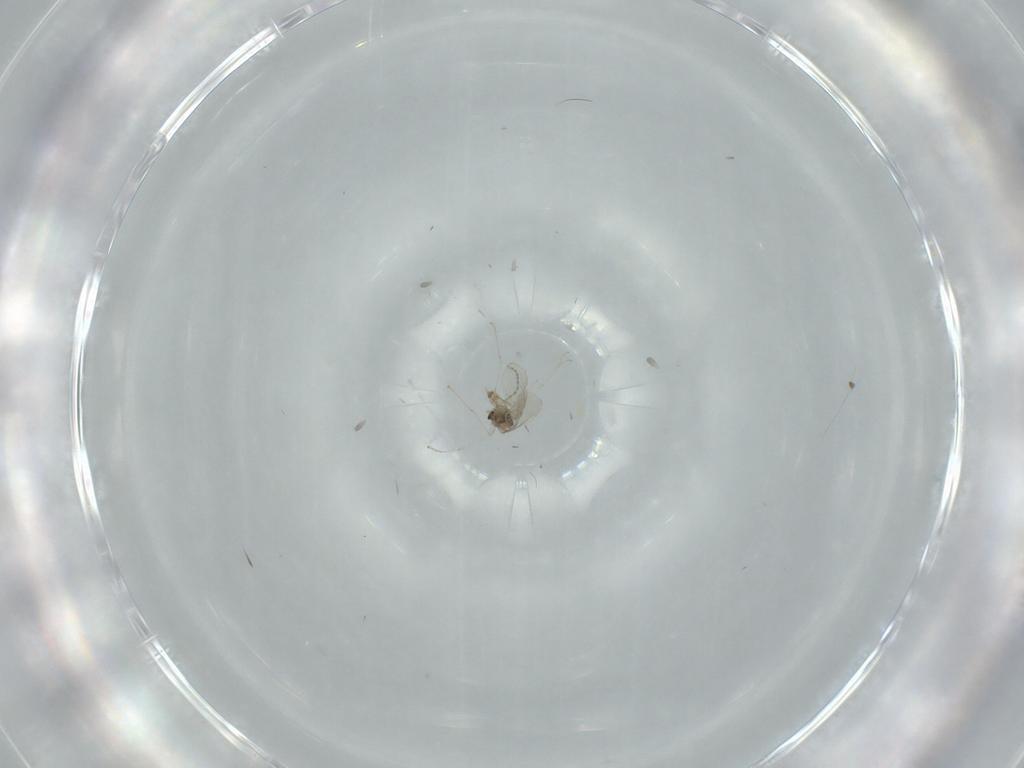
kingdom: Animalia
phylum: Arthropoda
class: Insecta
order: Diptera
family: Cecidomyiidae
